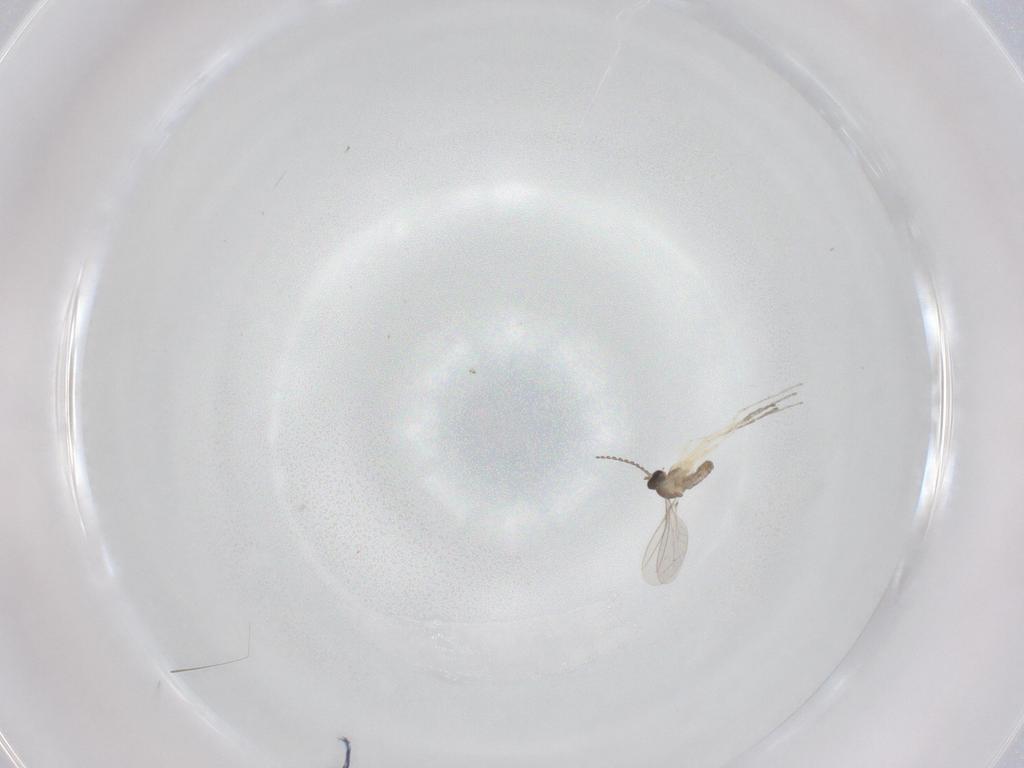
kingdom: Animalia
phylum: Arthropoda
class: Insecta
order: Diptera
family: Cecidomyiidae
